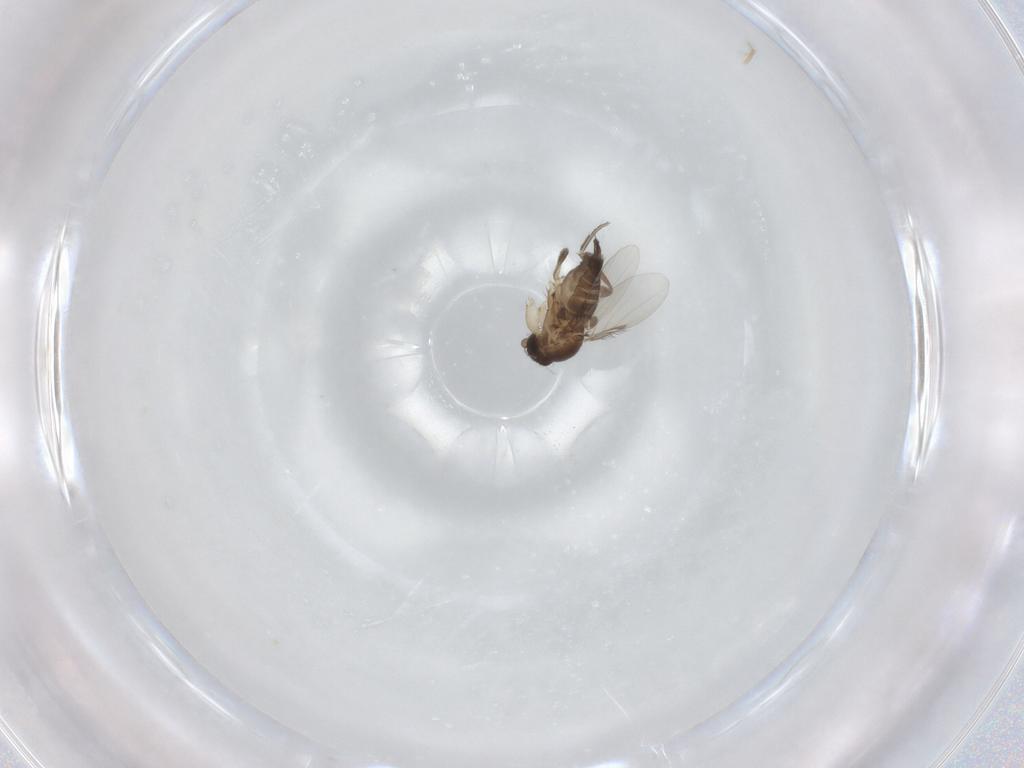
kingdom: Animalia
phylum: Arthropoda
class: Insecta
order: Diptera
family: Phoridae
